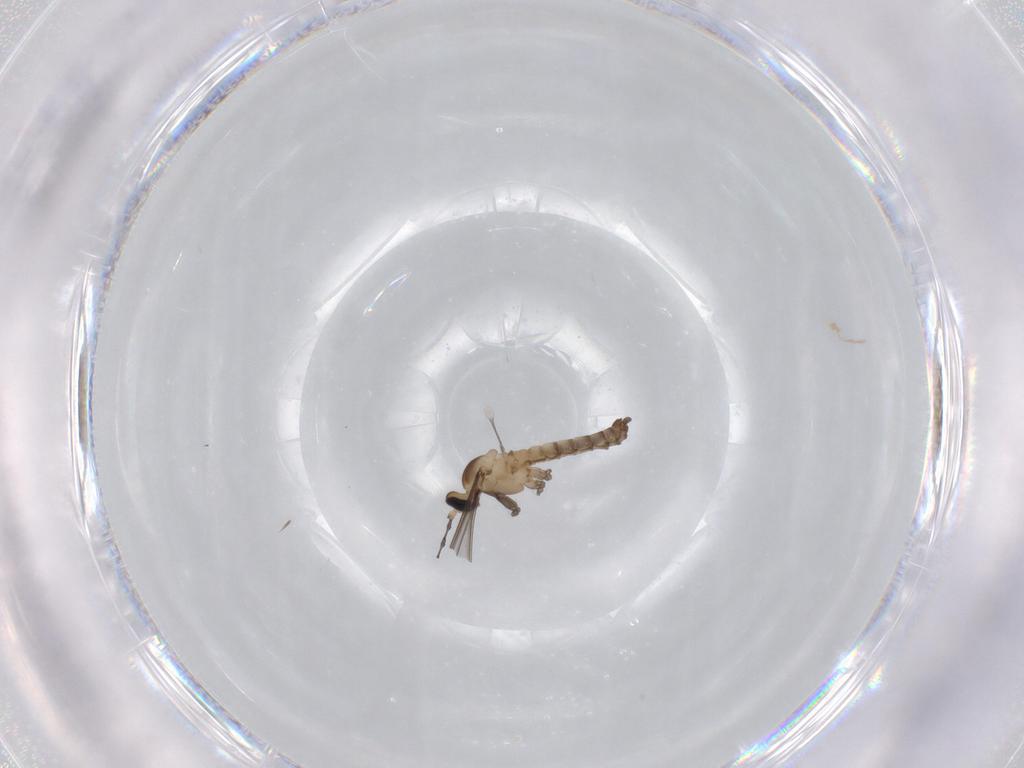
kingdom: Animalia
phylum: Arthropoda
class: Insecta
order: Diptera
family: Cecidomyiidae
